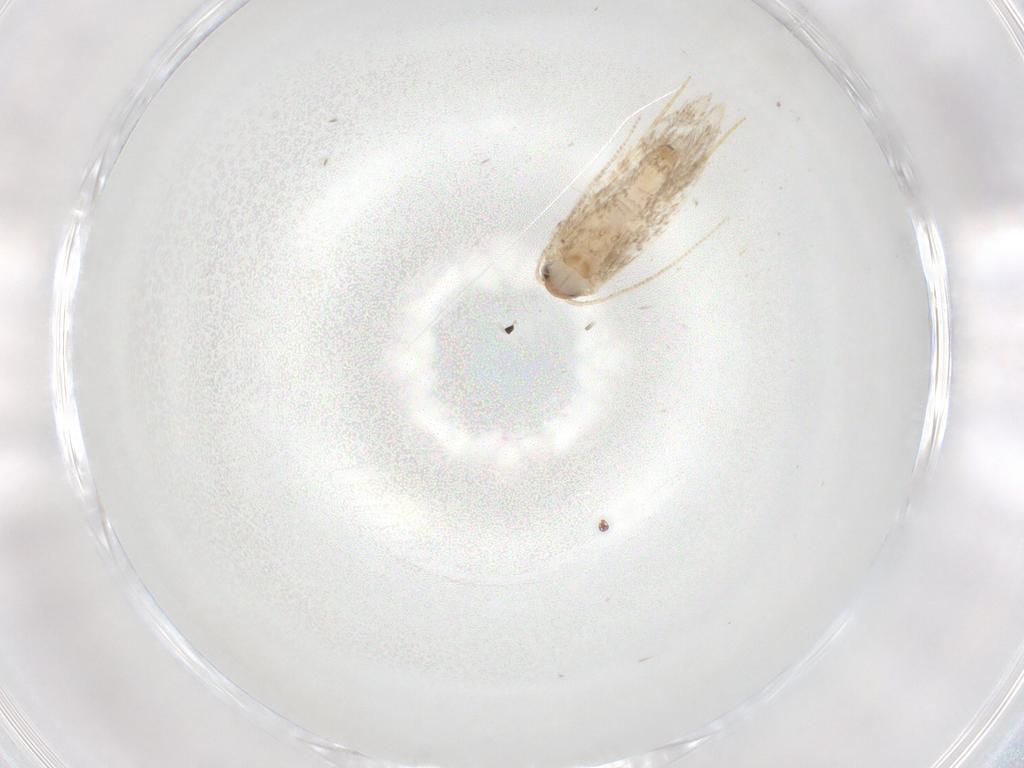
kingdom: Animalia
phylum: Arthropoda
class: Insecta
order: Lepidoptera
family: Tineidae
